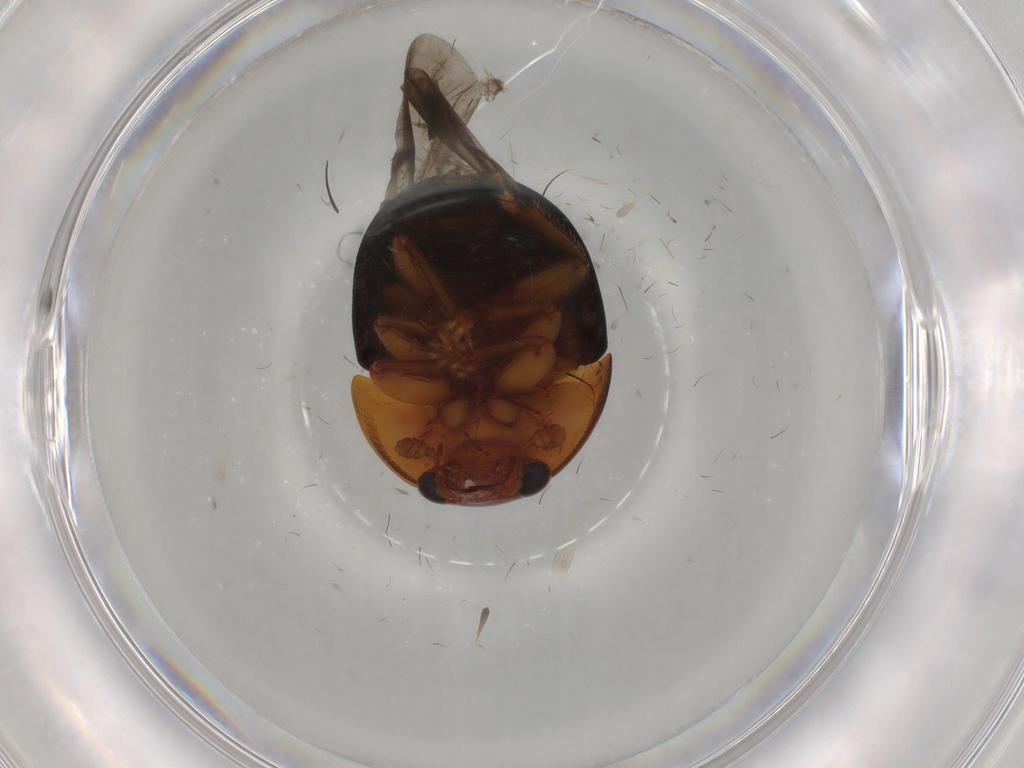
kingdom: Animalia
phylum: Arthropoda
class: Insecta
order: Coleoptera
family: Nitidulidae
